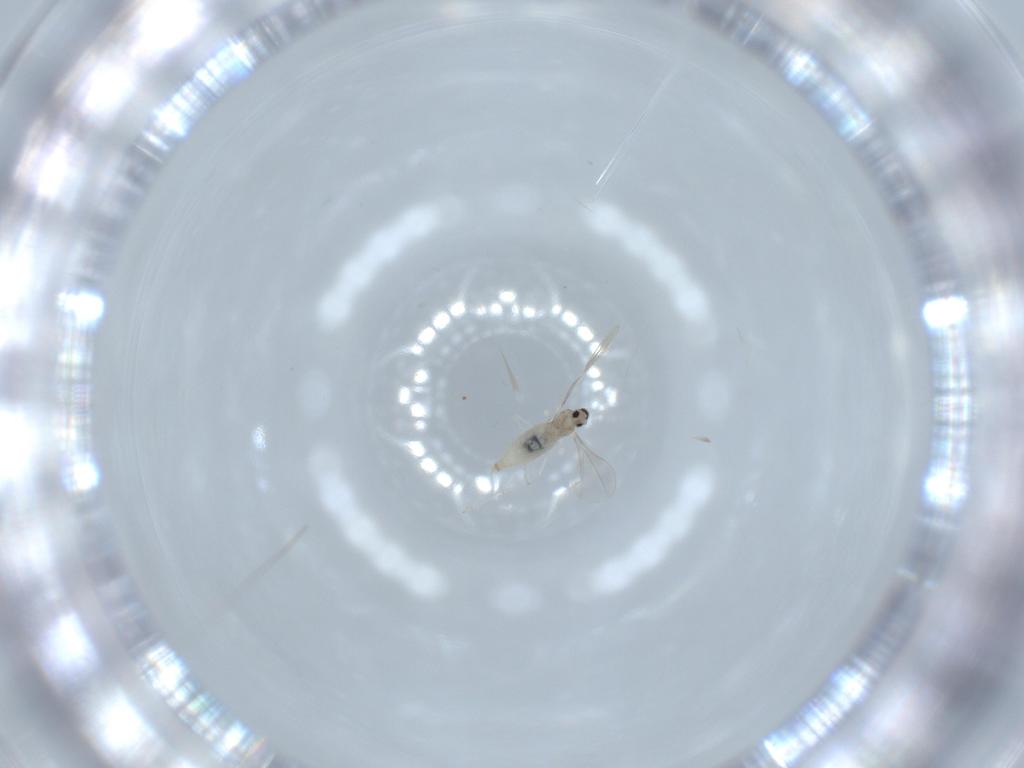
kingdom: Animalia
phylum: Arthropoda
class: Insecta
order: Diptera
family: Cecidomyiidae
